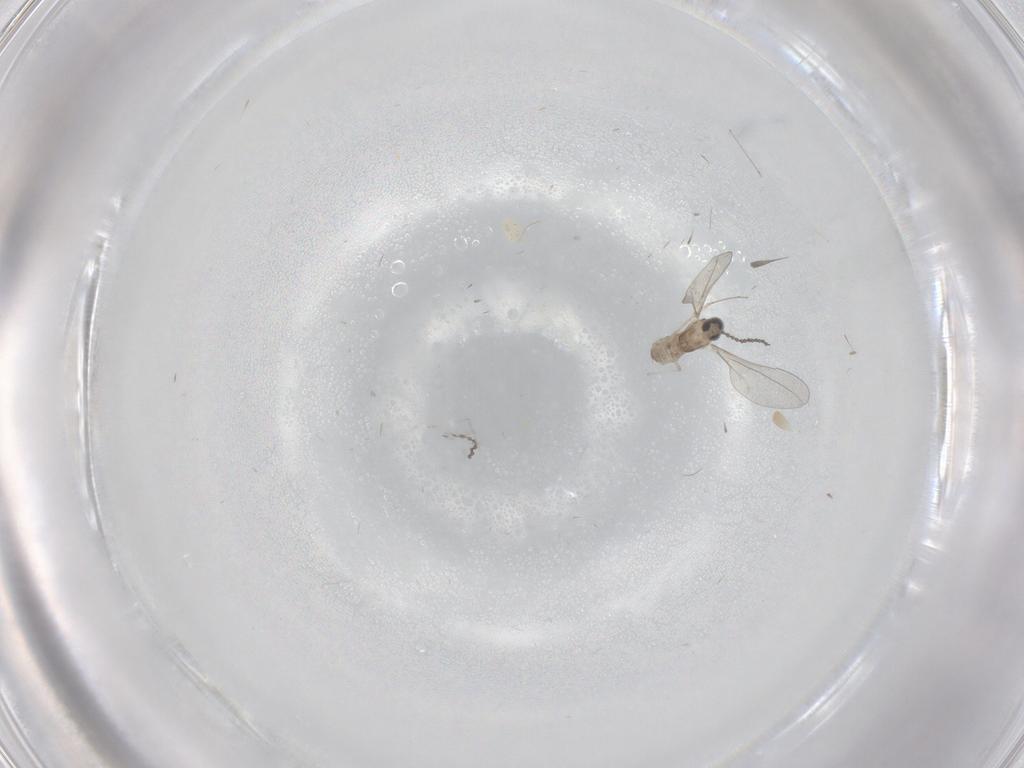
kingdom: Animalia
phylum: Arthropoda
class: Insecta
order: Diptera
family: Cecidomyiidae
